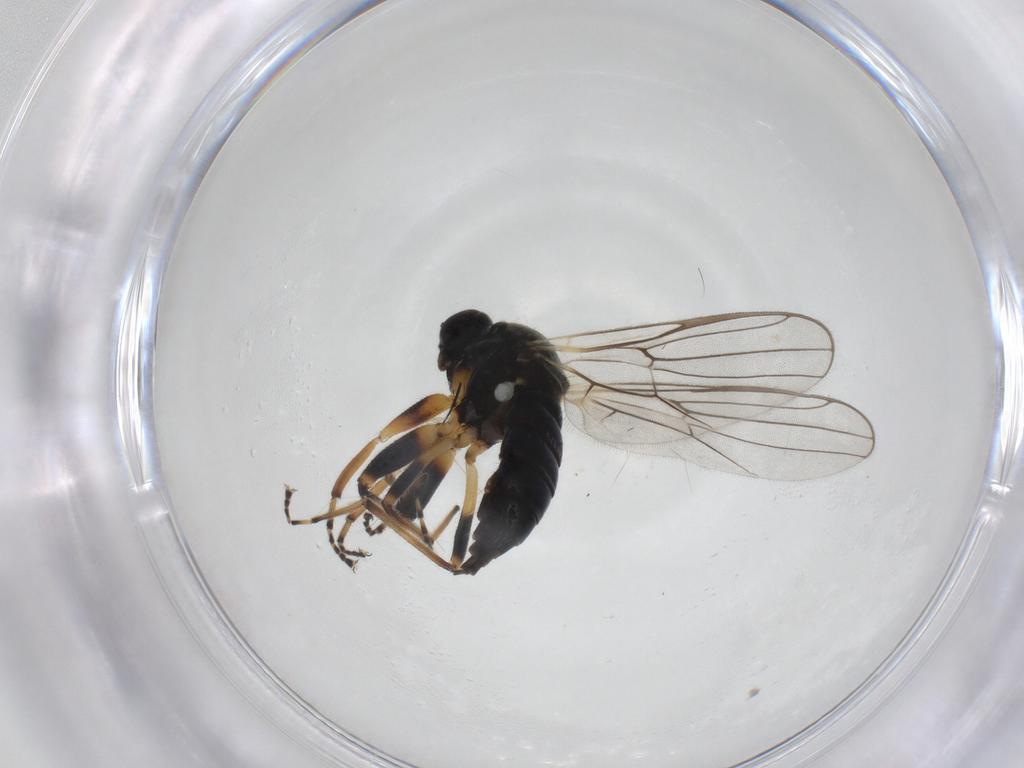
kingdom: Animalia
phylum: Arthropoda
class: Insecta
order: Diptera
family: Hybotidae
